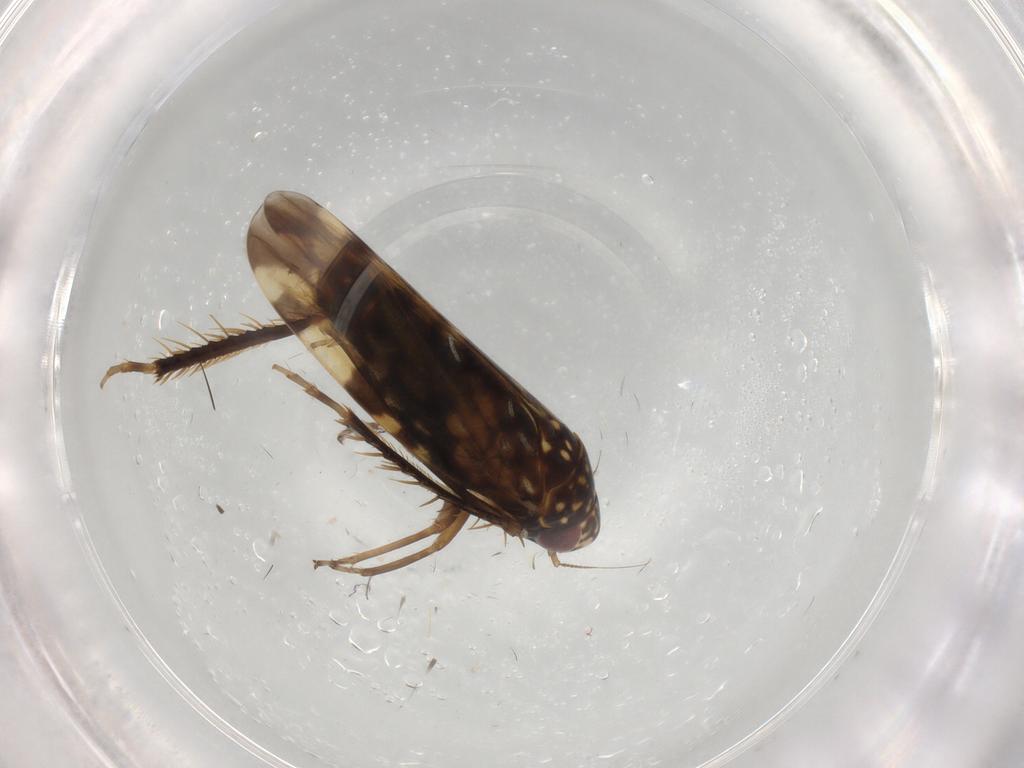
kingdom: Animalia
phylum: Arthropoda
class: Insecta
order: Hemiptera
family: Cicadellidae
